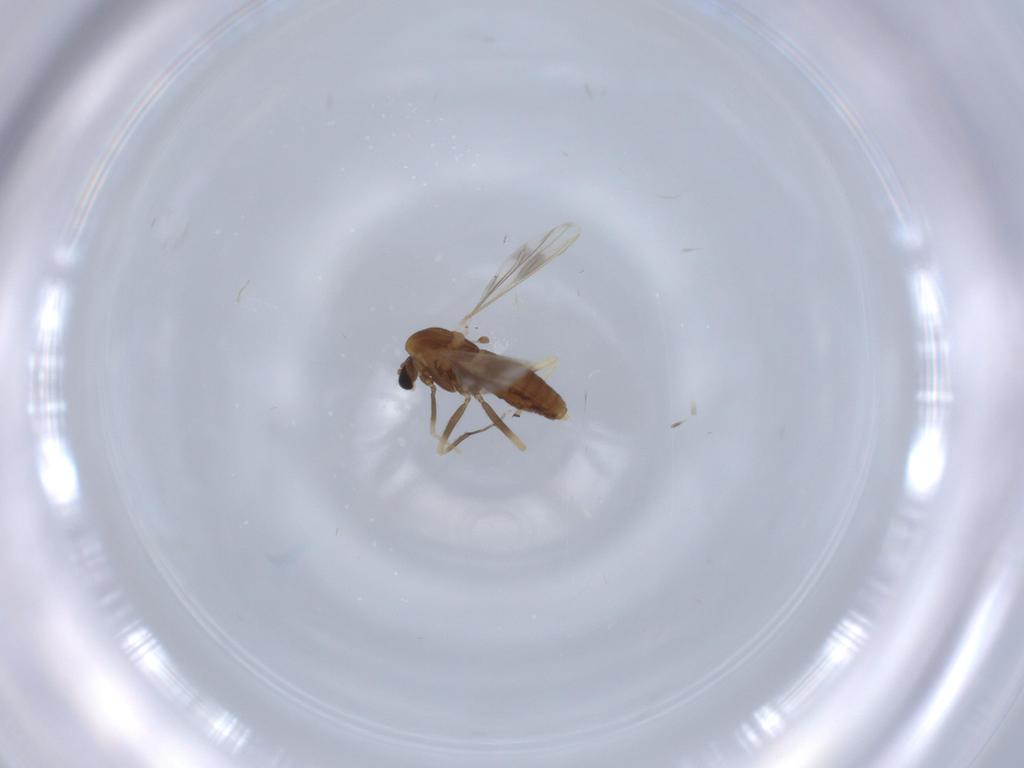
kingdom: Animalia
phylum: Arthropoda
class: Insecta
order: Diptera
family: Chironomidae
